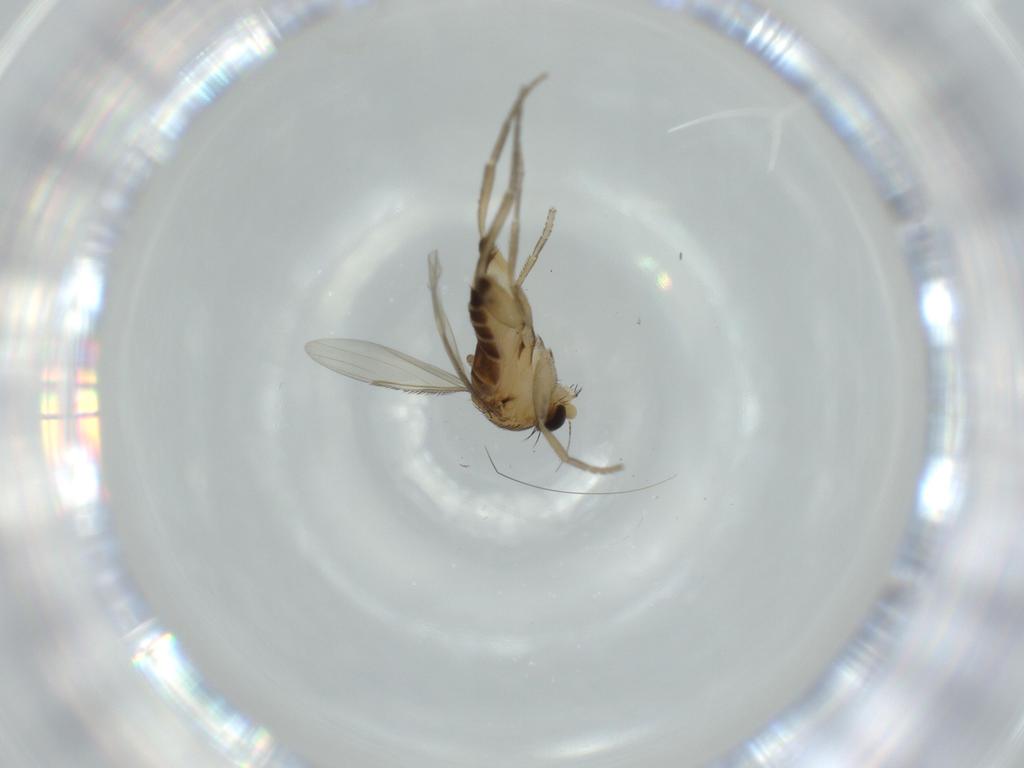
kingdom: Animalia
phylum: Arthropoda
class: Insecta
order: Diptera
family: Phoridae
